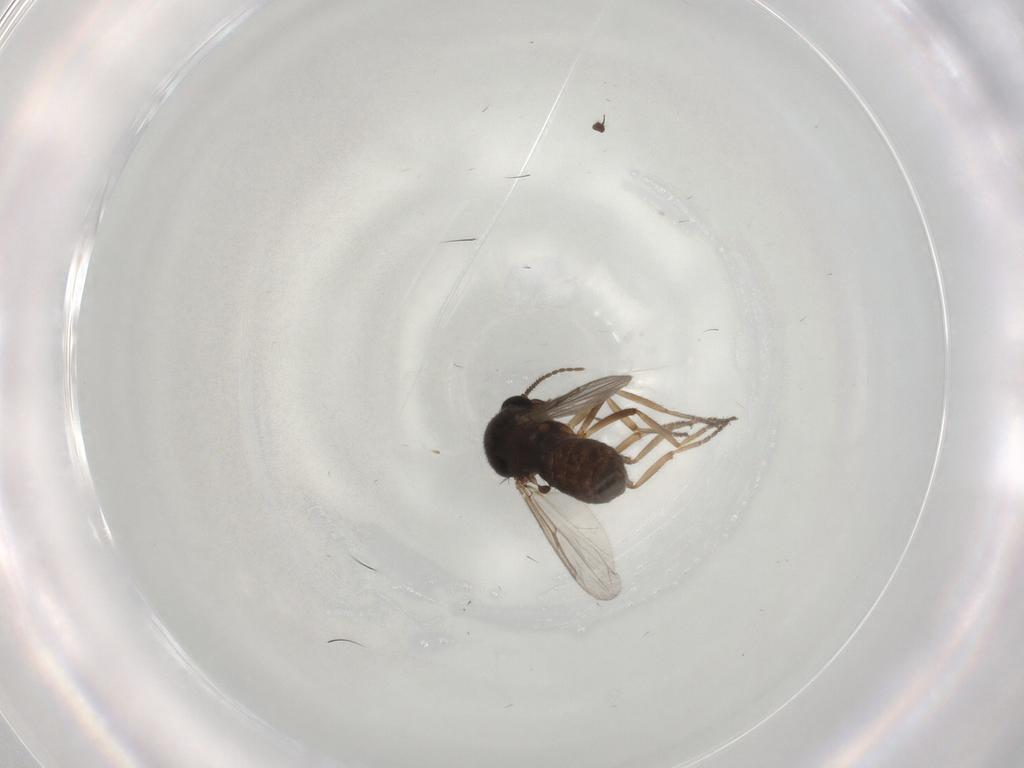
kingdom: Animalia
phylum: Arthropoda
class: Insecta
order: Diptera
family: Ceratopogonidae
